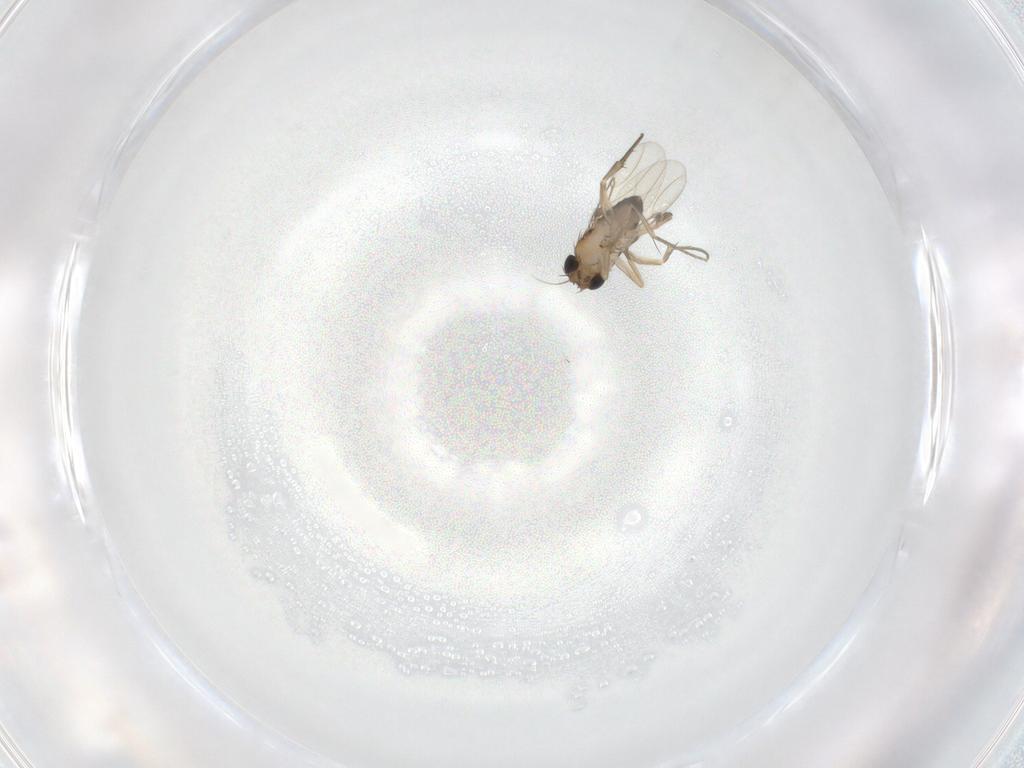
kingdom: Animalia
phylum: Arthropoda
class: Insecta
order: Diptera
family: Phoridae
